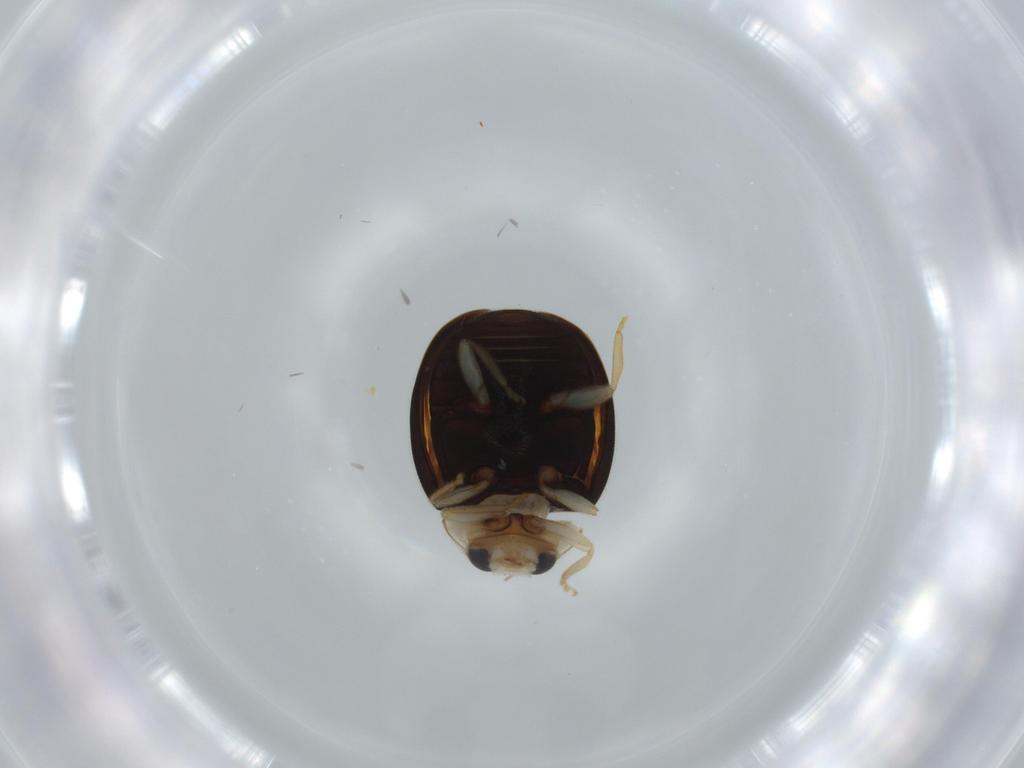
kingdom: Animalia
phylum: Arthropoda
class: Insecta
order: Coleoptera
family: Coccinellidae
